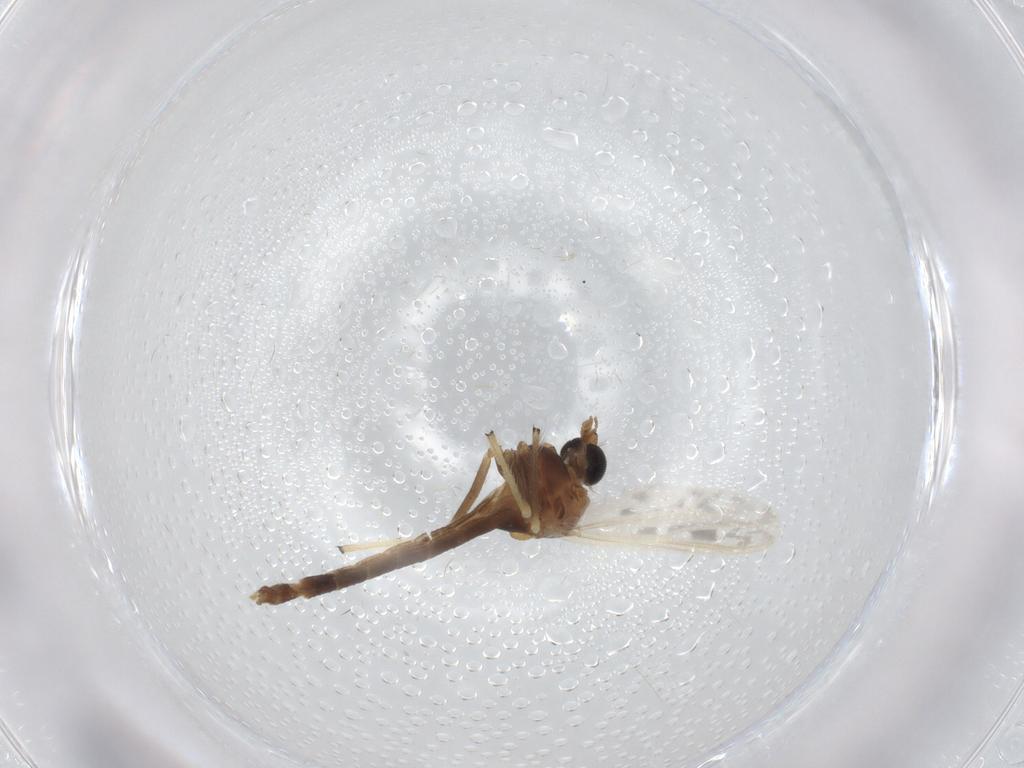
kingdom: Animalia
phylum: Arthropoda
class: Insecta
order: Diptera
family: Chironomidae
